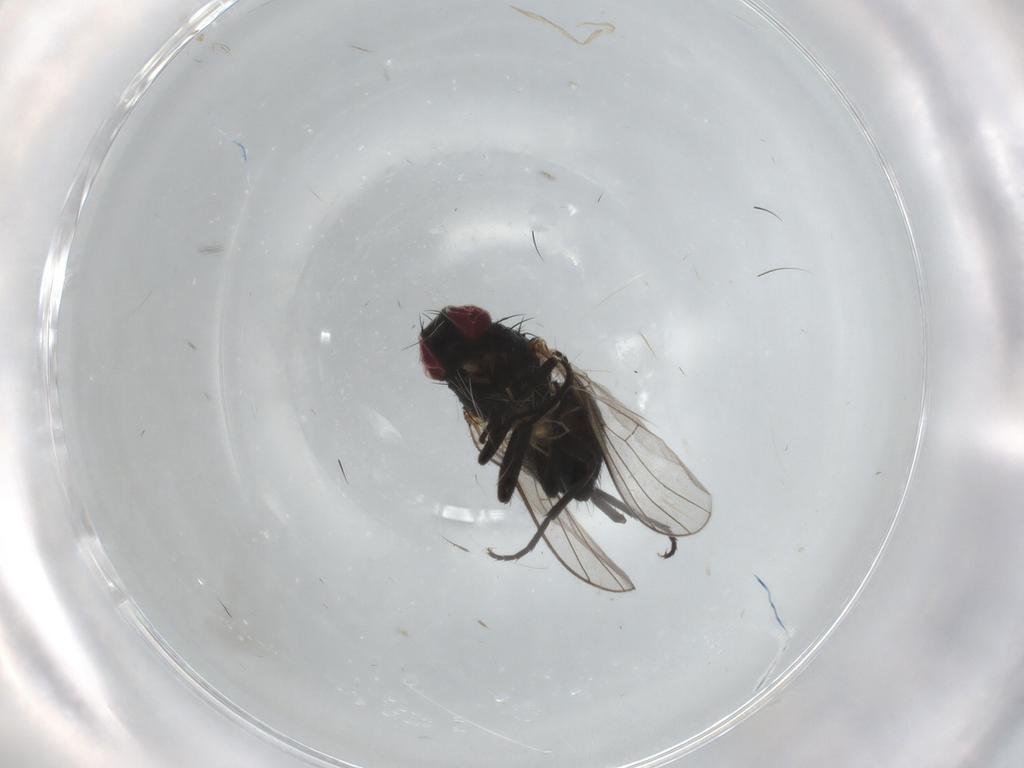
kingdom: Animalia
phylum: Arthropoda
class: Insecta
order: Diptera
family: Agromyzidae
